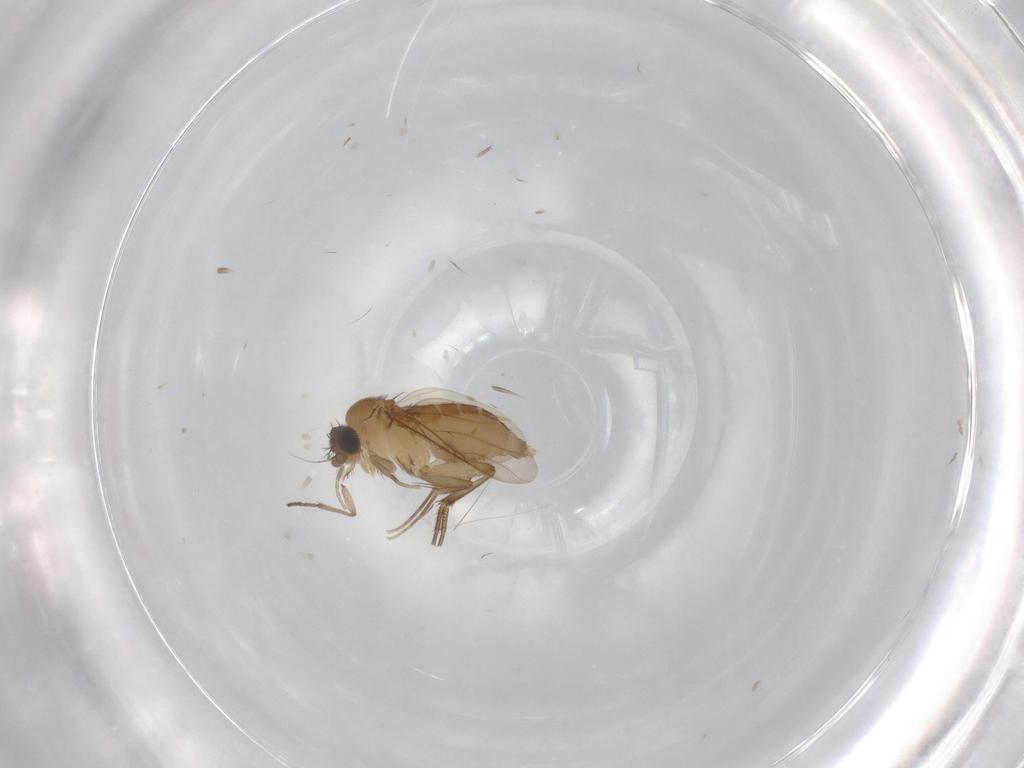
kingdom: Animalia
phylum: Arthropoda
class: Insecta
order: Diptera
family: Phoridae
